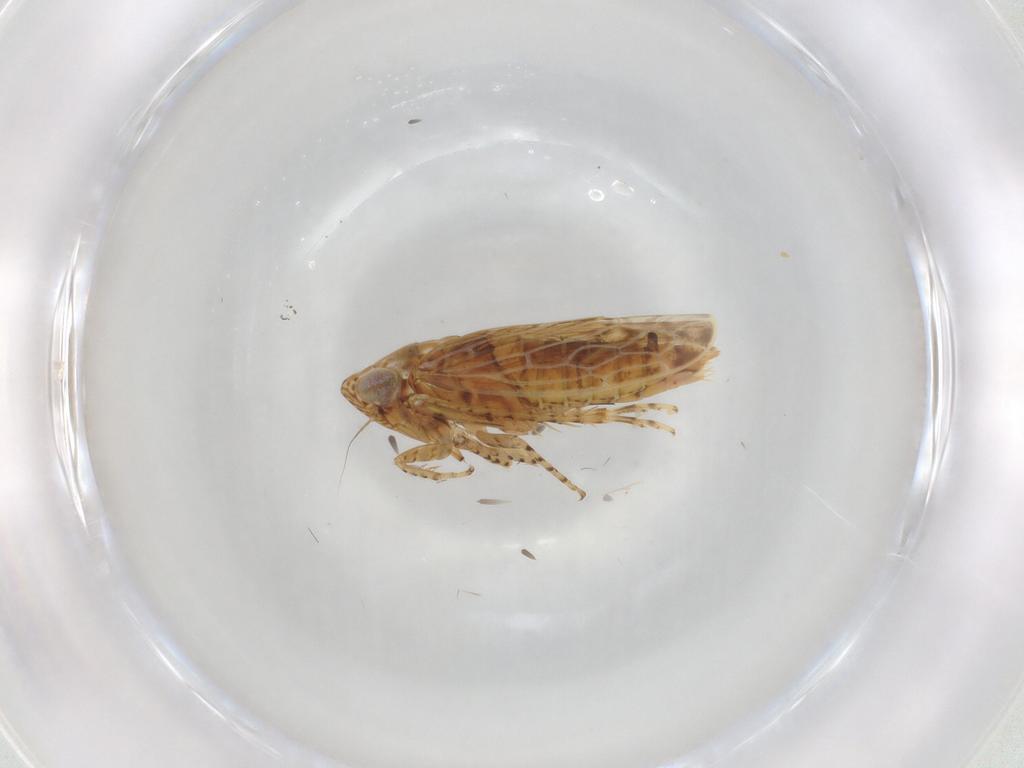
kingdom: Animalia
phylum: Arthropoda
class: Insecta
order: Hemiptera
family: Cicadellidae
